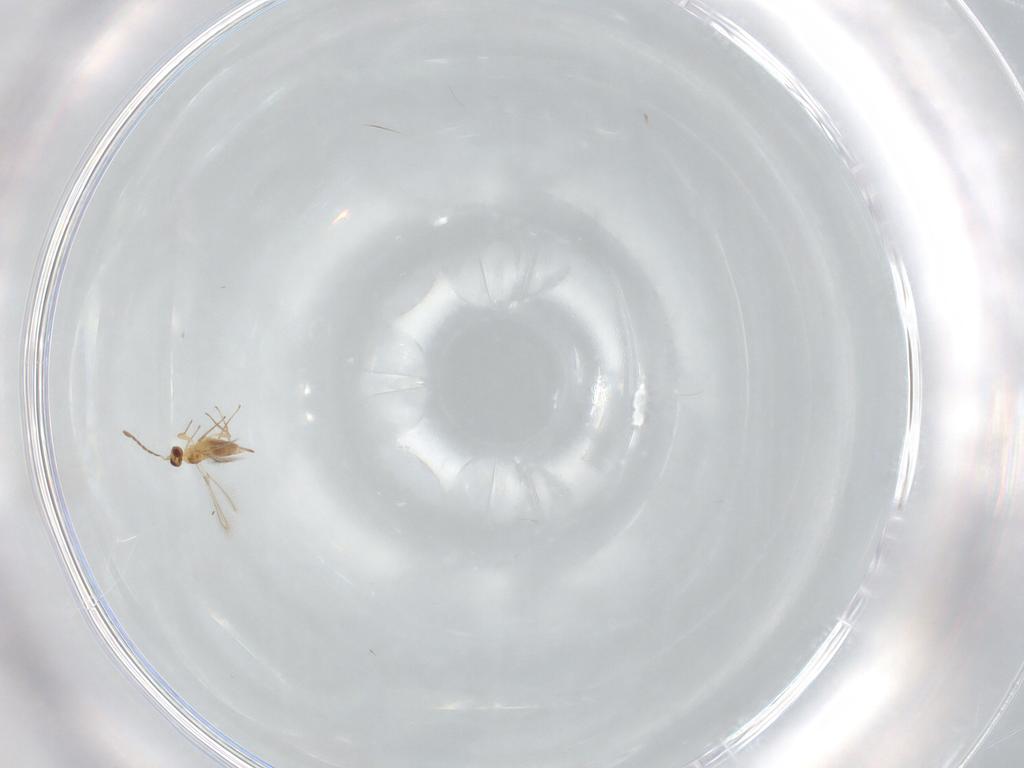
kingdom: Animalia
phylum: Arthropoda
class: Insecta
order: Hymenoptera
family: Mymaridae
